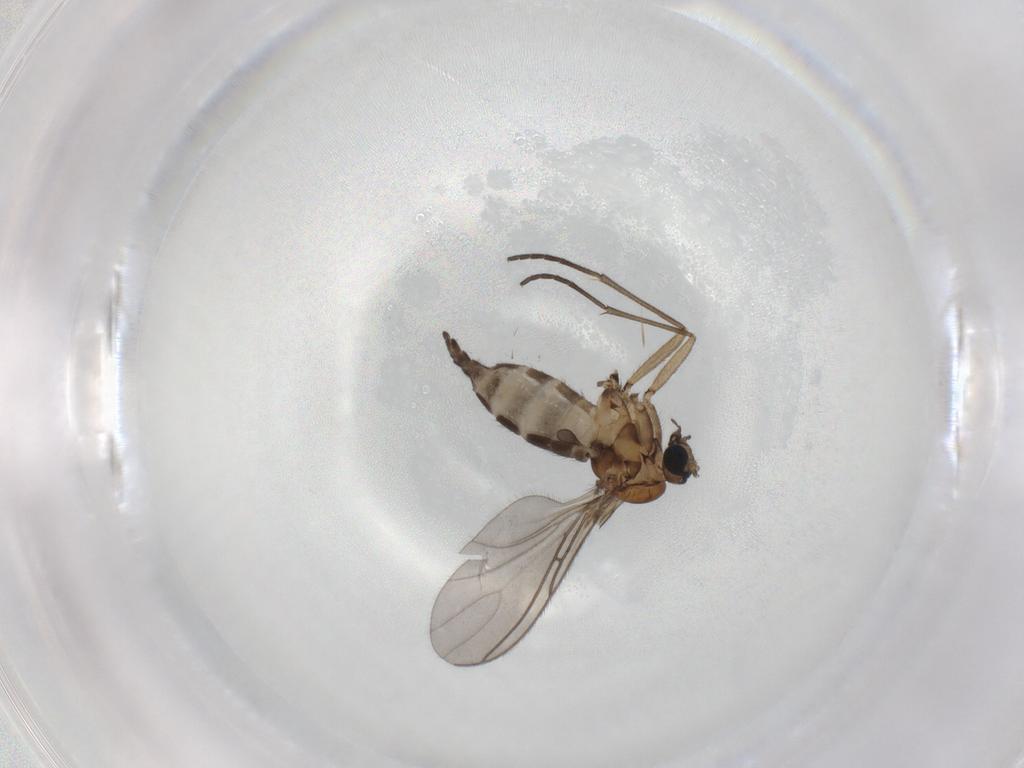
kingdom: Animalia
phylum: Arthropoda
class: Insecta
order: Diptera
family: Sciaridae
